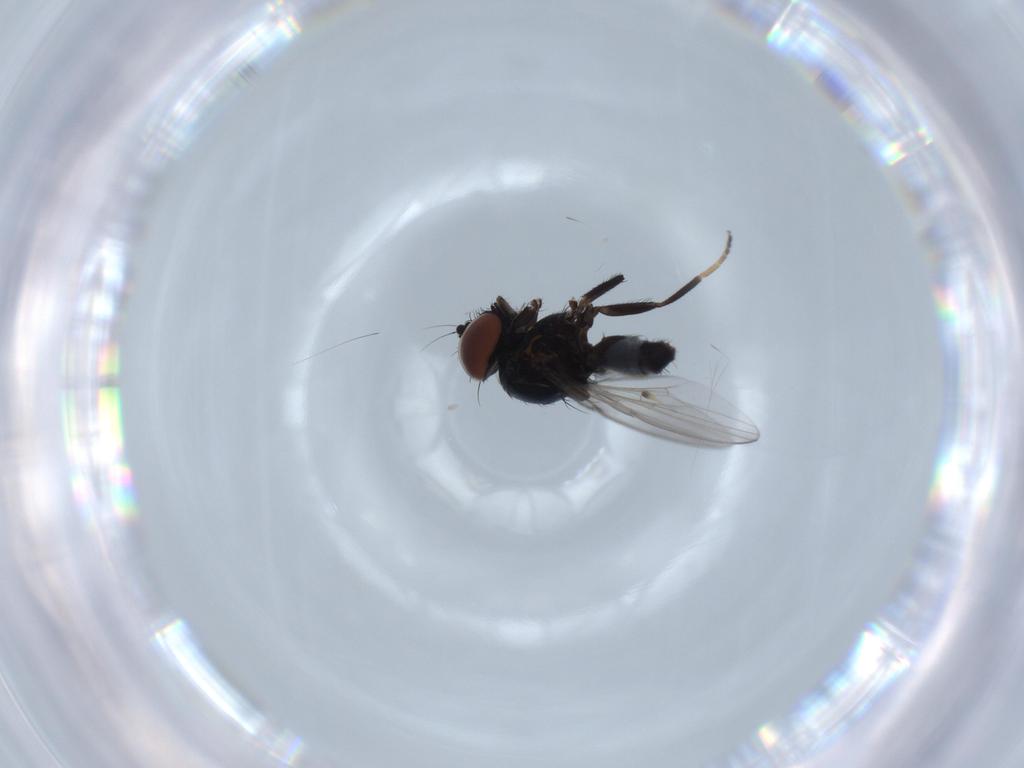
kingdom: Animalia
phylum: Arthropoda
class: Insecta
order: Diptera
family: Milichiidae
